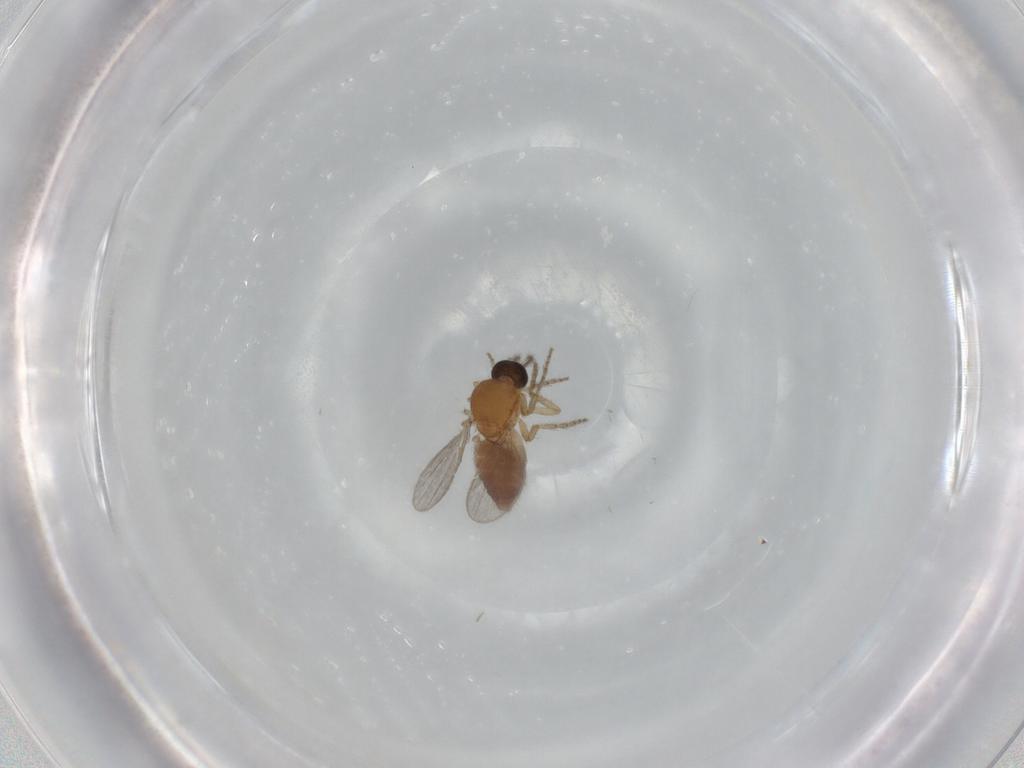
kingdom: Animalia
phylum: Arthropoda
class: Insecta
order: Diptera
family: Ceratopogonidae
